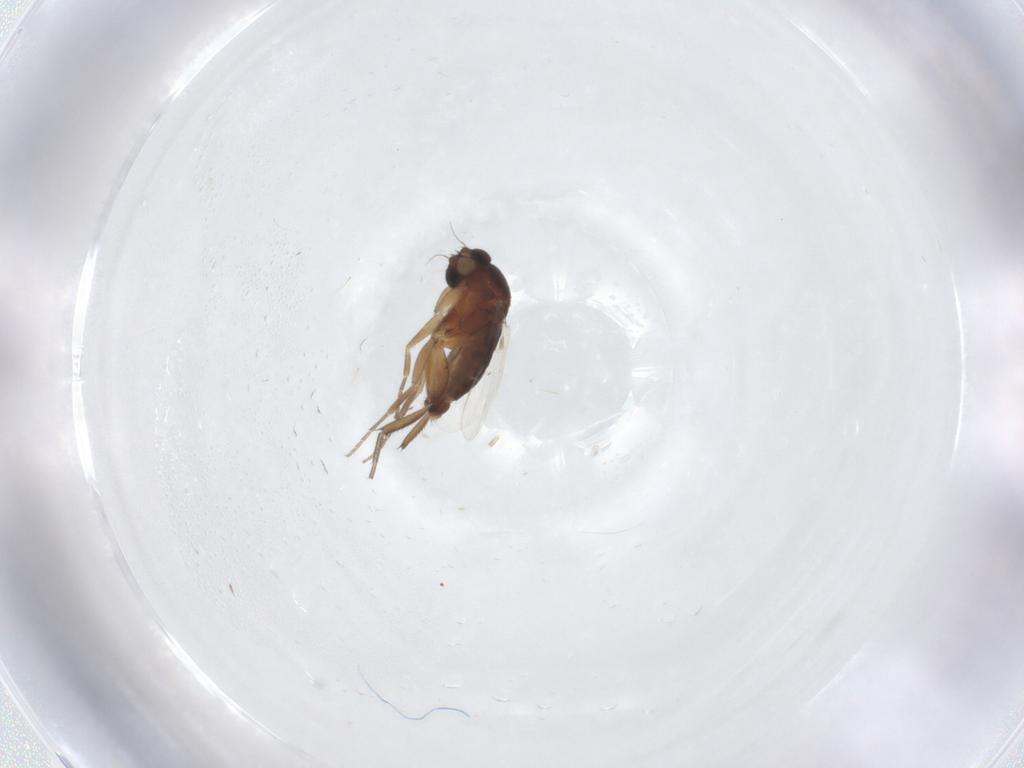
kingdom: Animalia
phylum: Arthropoda
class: Insecta
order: Diptera
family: Phoridae
